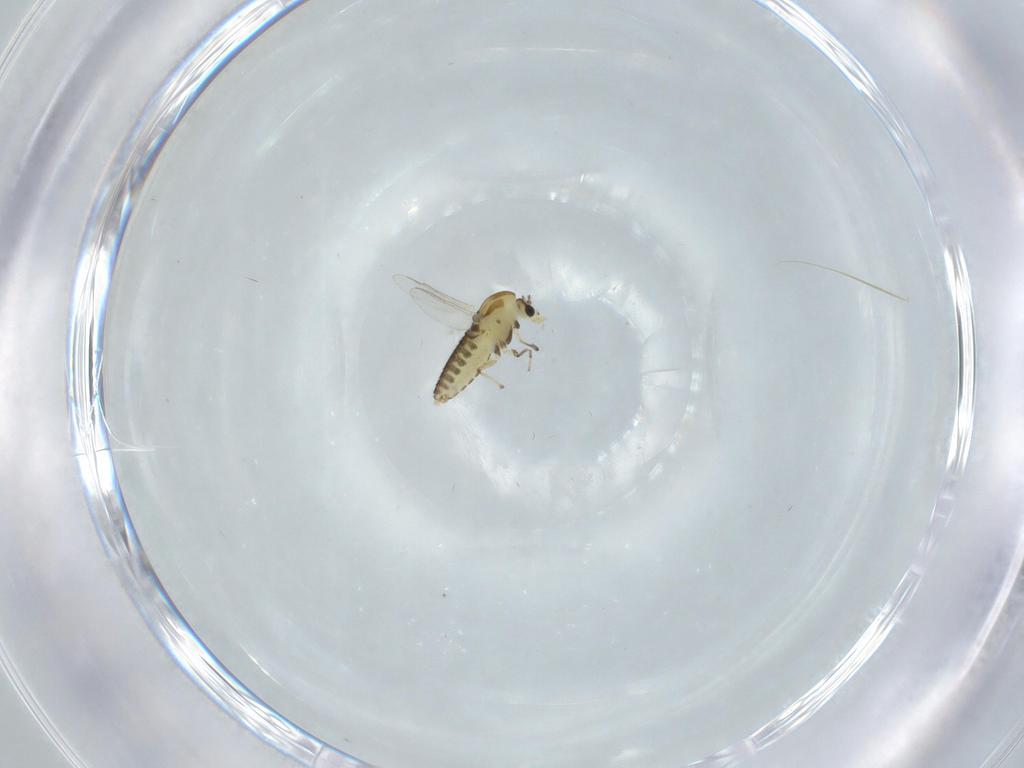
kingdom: Animalia
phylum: Arthropoda
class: Insecta
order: Diptera
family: Chironomidae
